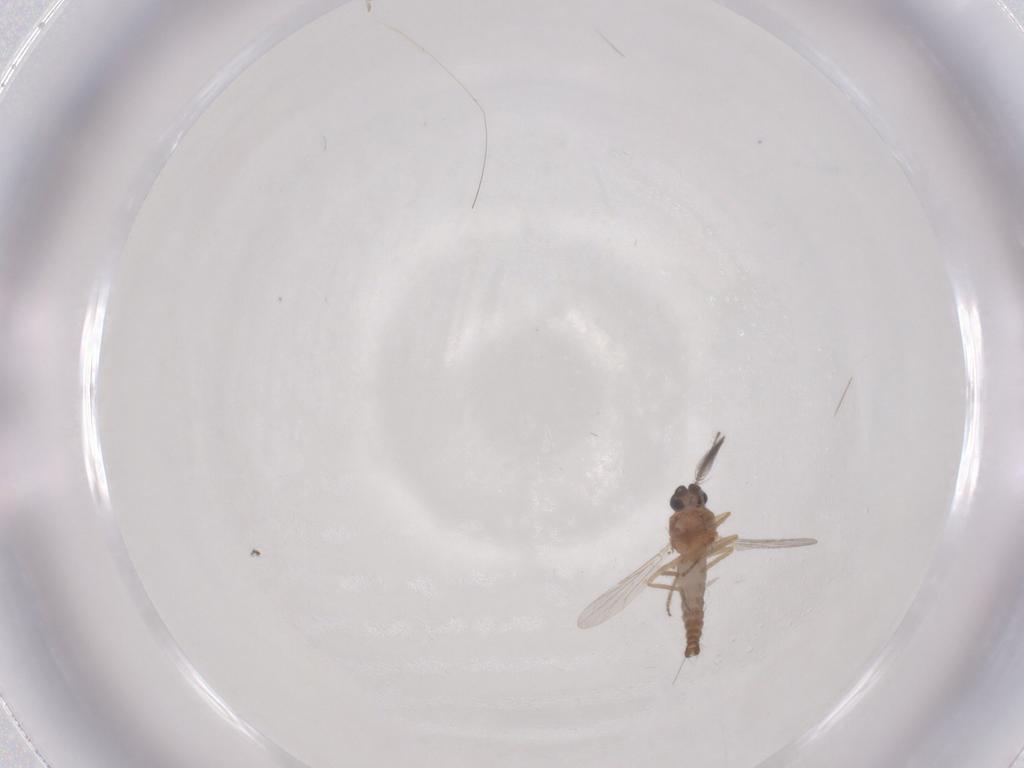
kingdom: Animalia
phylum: Arthropoda
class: Insecta
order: Diptera
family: Ceratopogonidae
